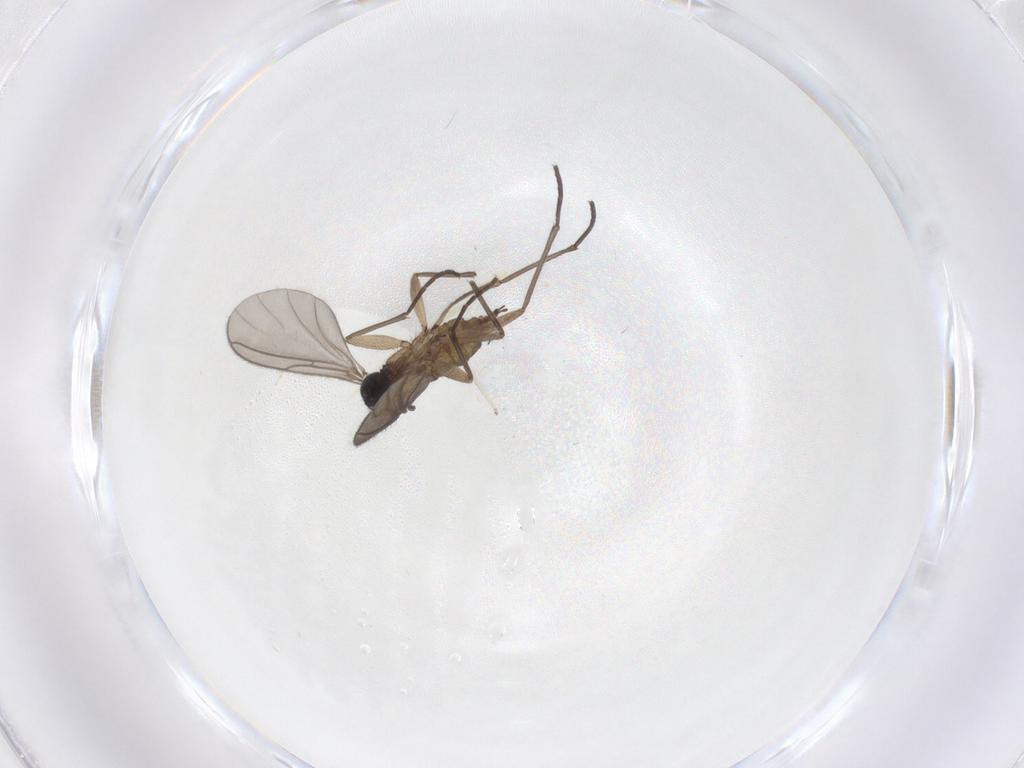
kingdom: Animalia
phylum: Arthropoda
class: Insecta
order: Diptera
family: Sciaridae
